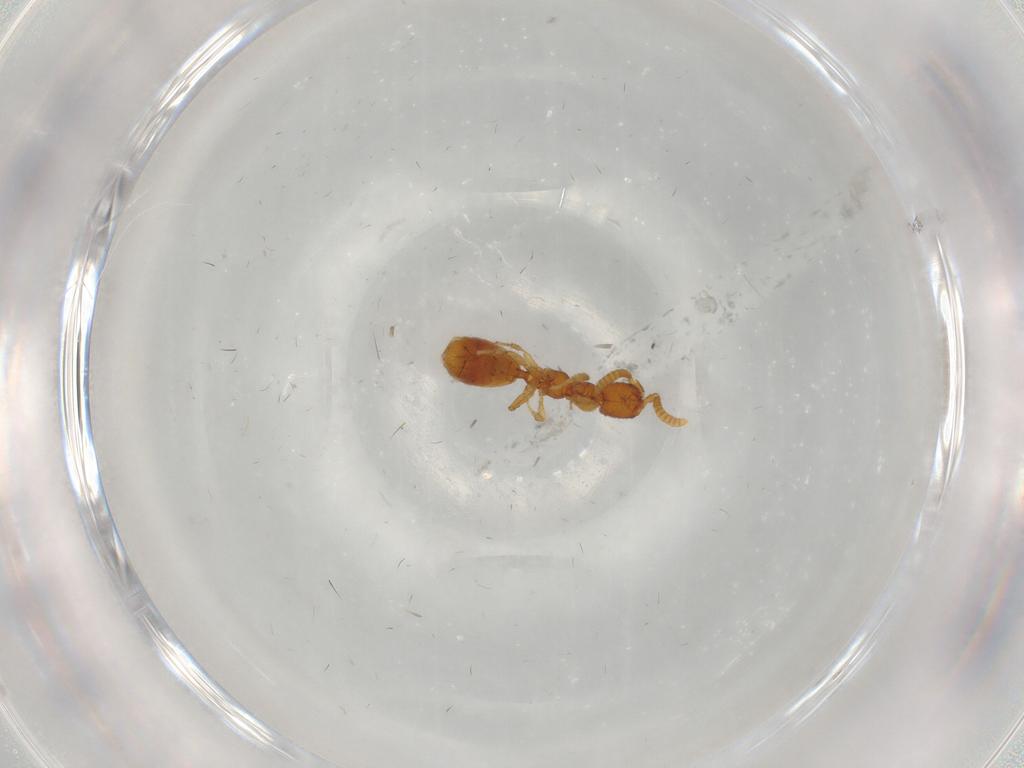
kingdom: Animalia
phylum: Arthropoda
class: Insecta
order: Hymenoptera
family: Bethylidae
